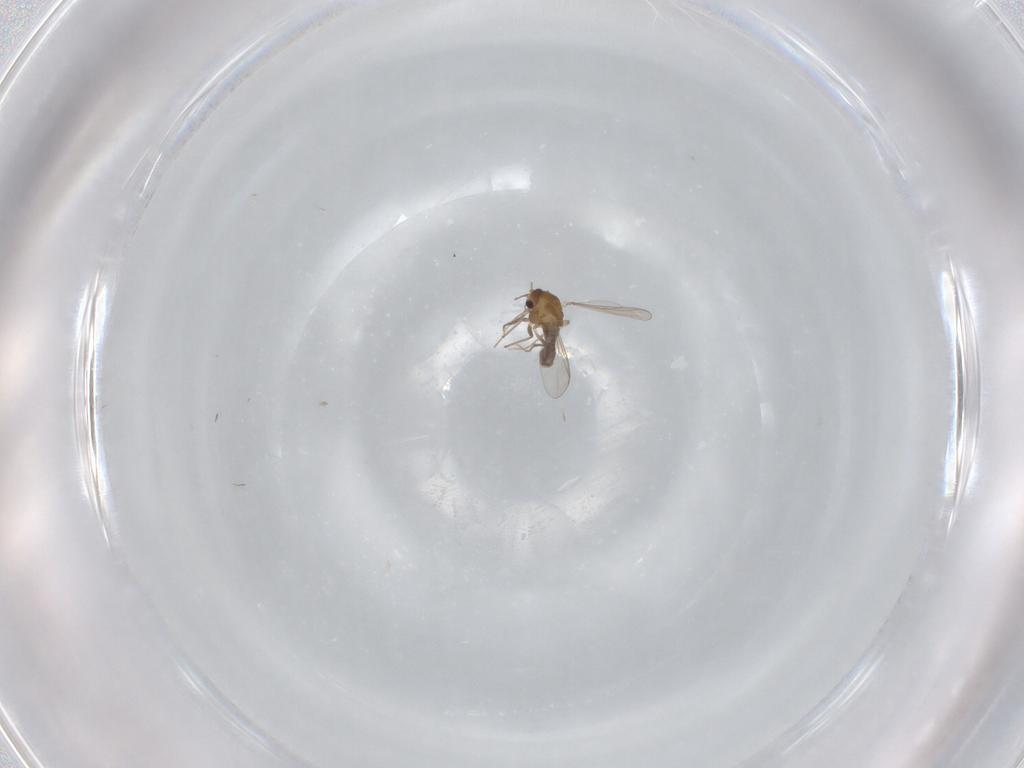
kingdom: Animalia
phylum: Arthropoda
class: Insecta
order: Diptera
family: Chironomidae
